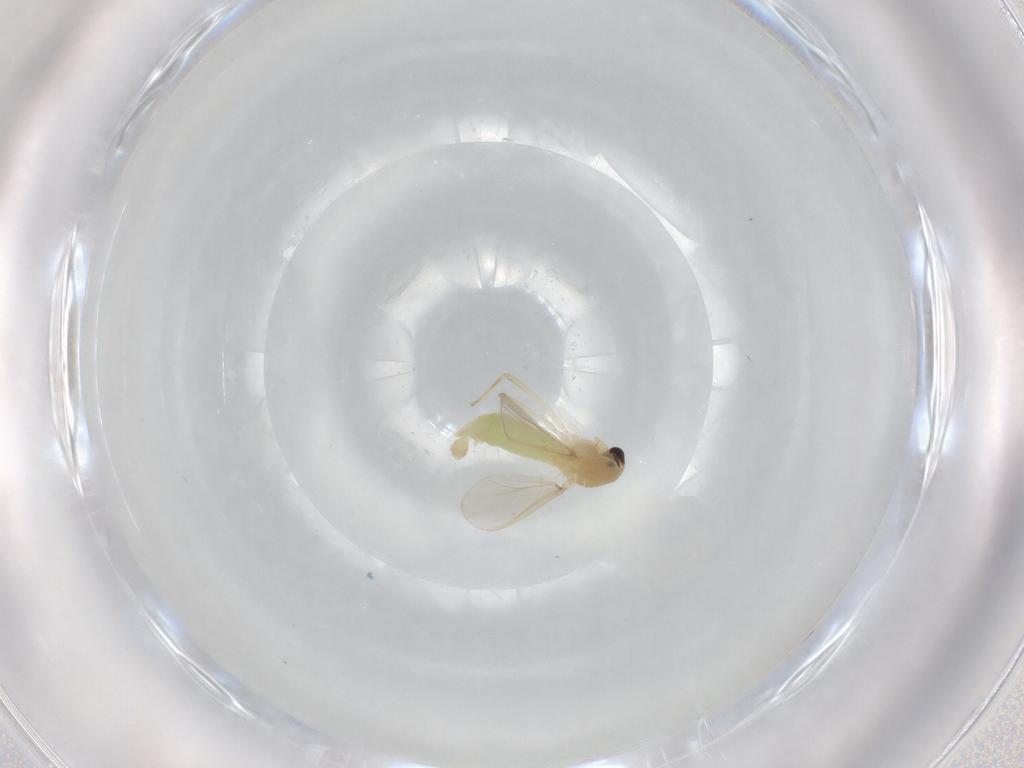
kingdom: Animalia
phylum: Arthropoda
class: Insecta
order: Diptera
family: Chironomidae
